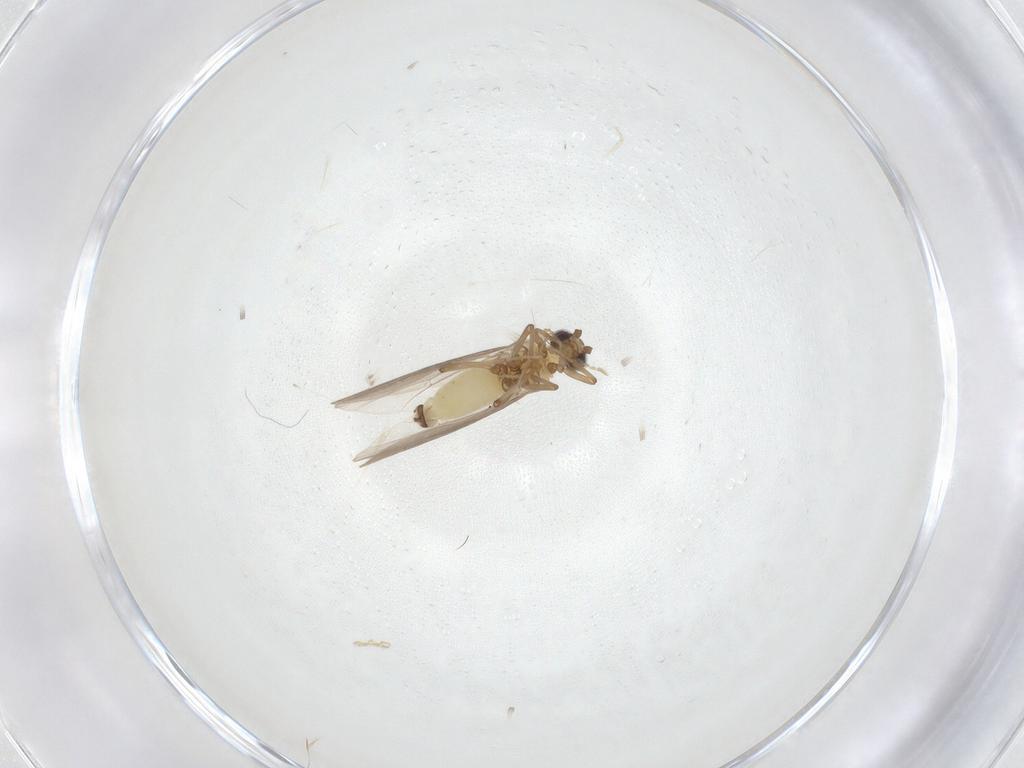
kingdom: Animalia
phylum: Arthropoda
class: Insecta
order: Neuroptera
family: Coniopterygidae
